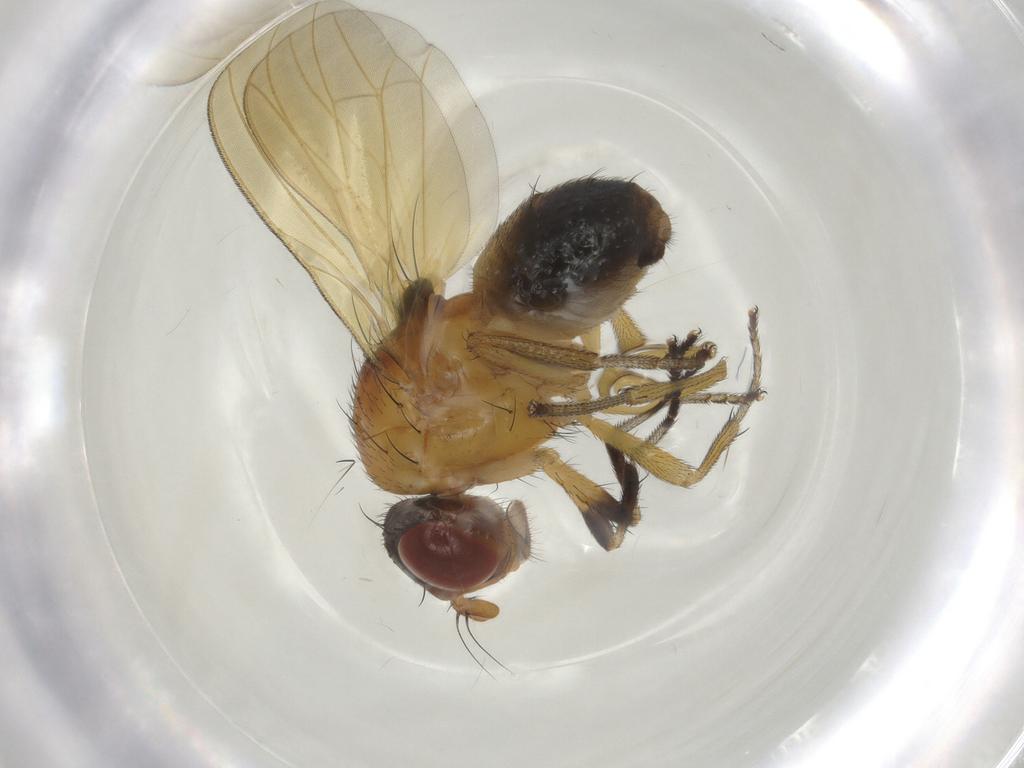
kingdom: Animalia
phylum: Arthropoda
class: Insecta
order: Diptera
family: Chironomidae
